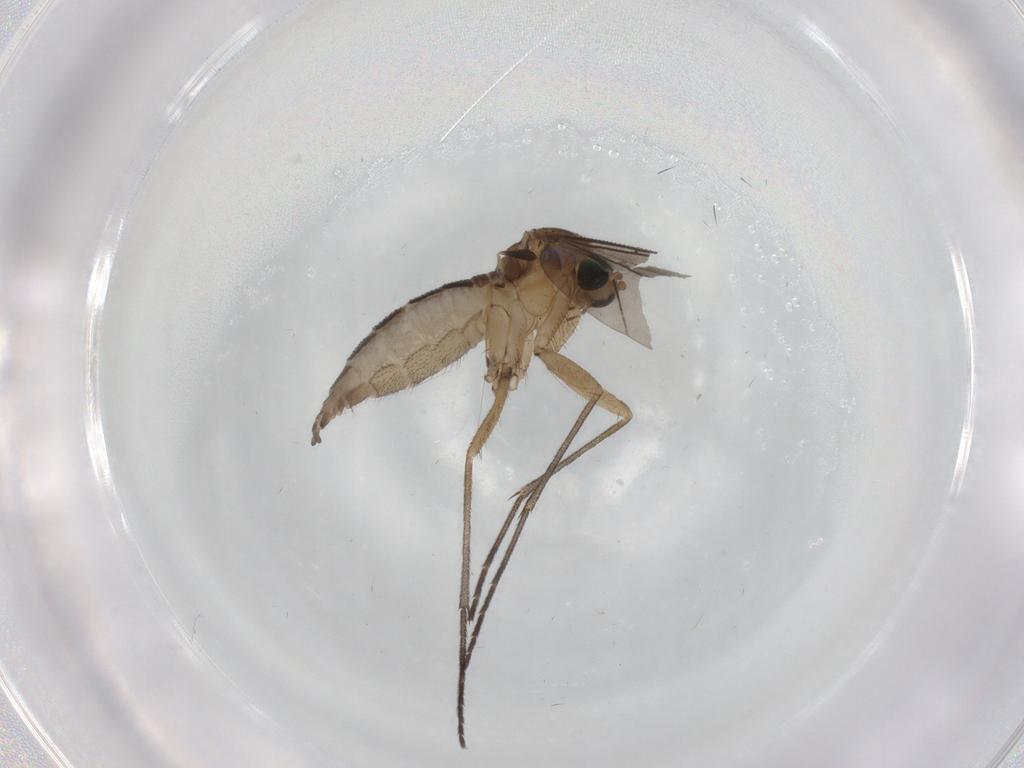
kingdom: Animalia
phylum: Arthropoda
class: Insecta
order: Diptera
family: Sciaridae
